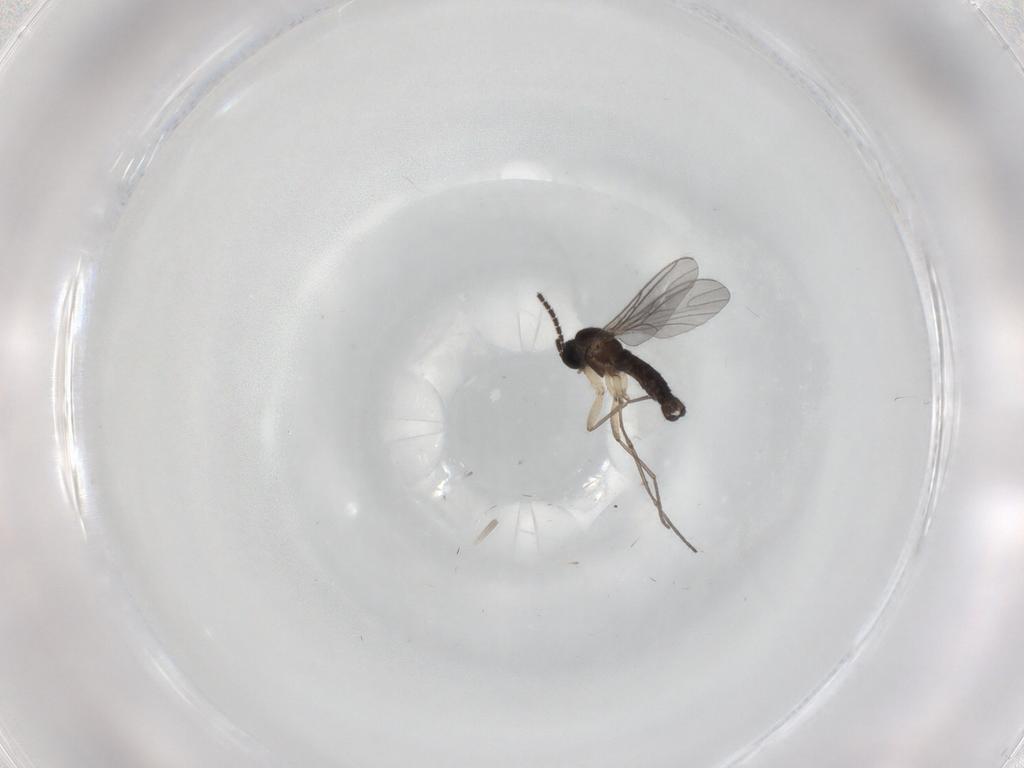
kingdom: Animalia
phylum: Arthropoda
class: Insecta
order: Diptera
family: Sciaridae
